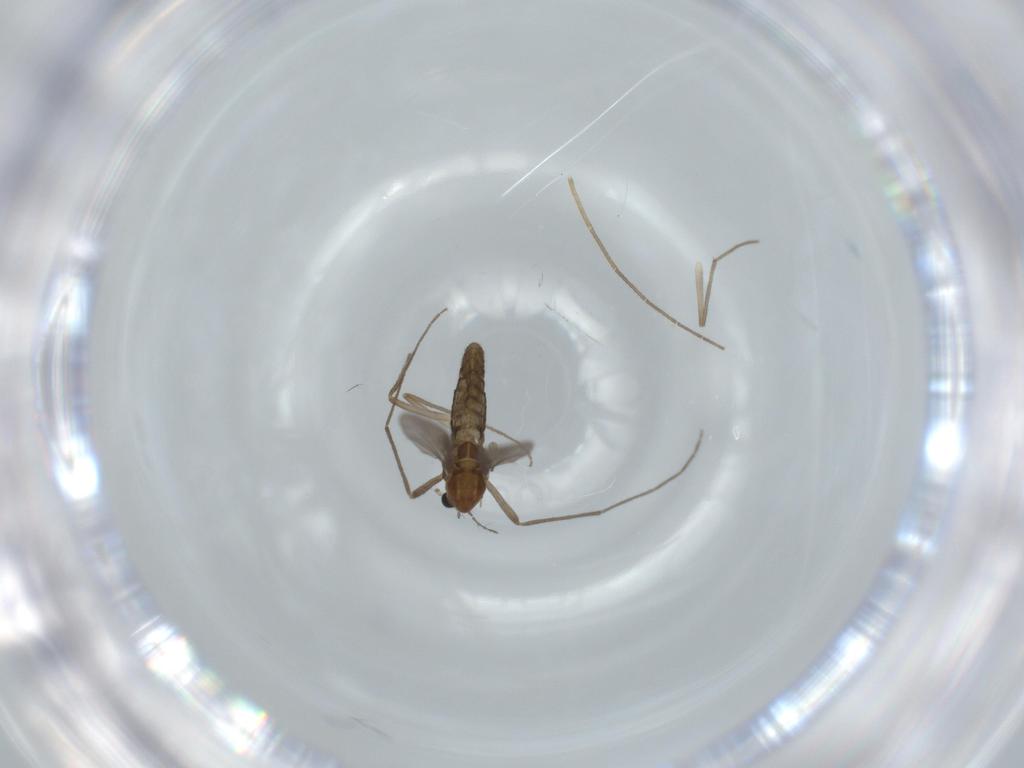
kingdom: Animalia
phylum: Arthropoda
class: Insecta
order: Diptera
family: Chironomidae
